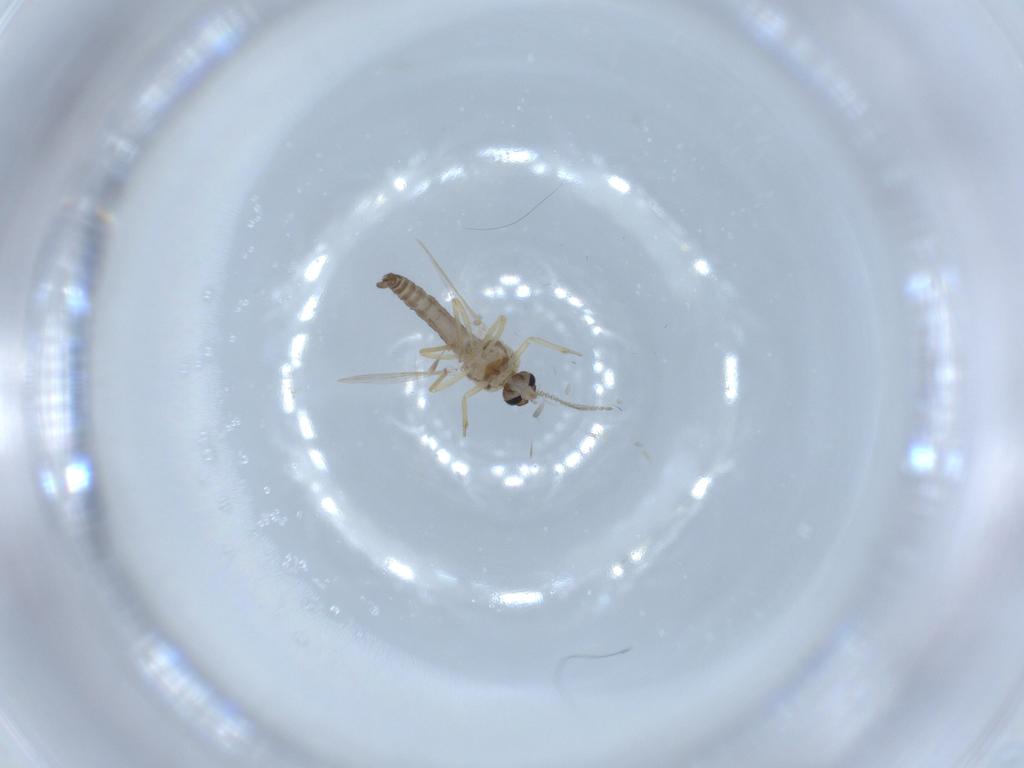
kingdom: Animalia
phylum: Arthropoda
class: Insecta
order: Diptera
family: Ceratopogonidae
